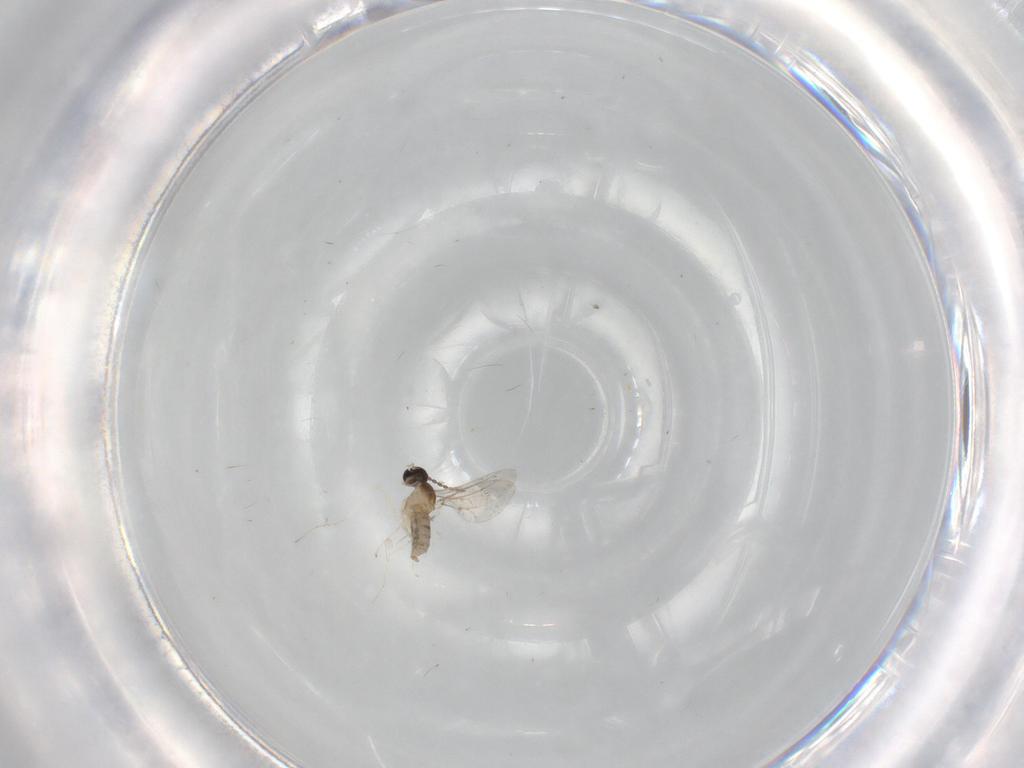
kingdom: Animalia
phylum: Arthropoda
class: Insecta
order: Diptera
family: Cecidomyiidae
